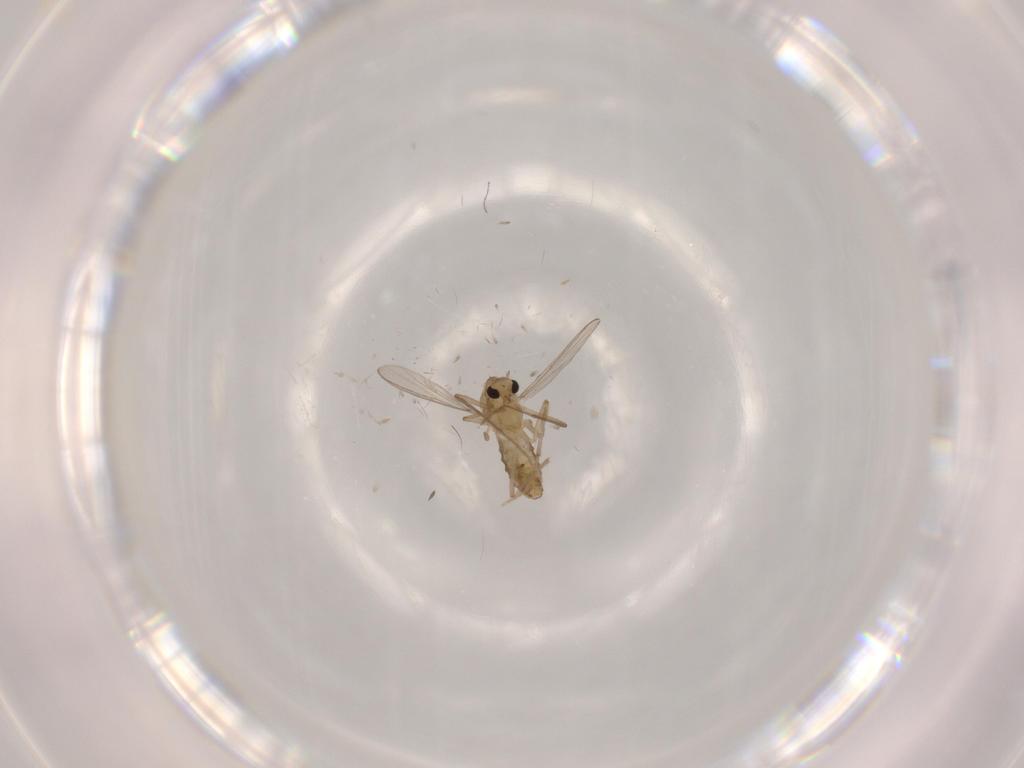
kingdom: Animalia
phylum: Arthropoda
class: Insecta
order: Diptera
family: Chironomidae
